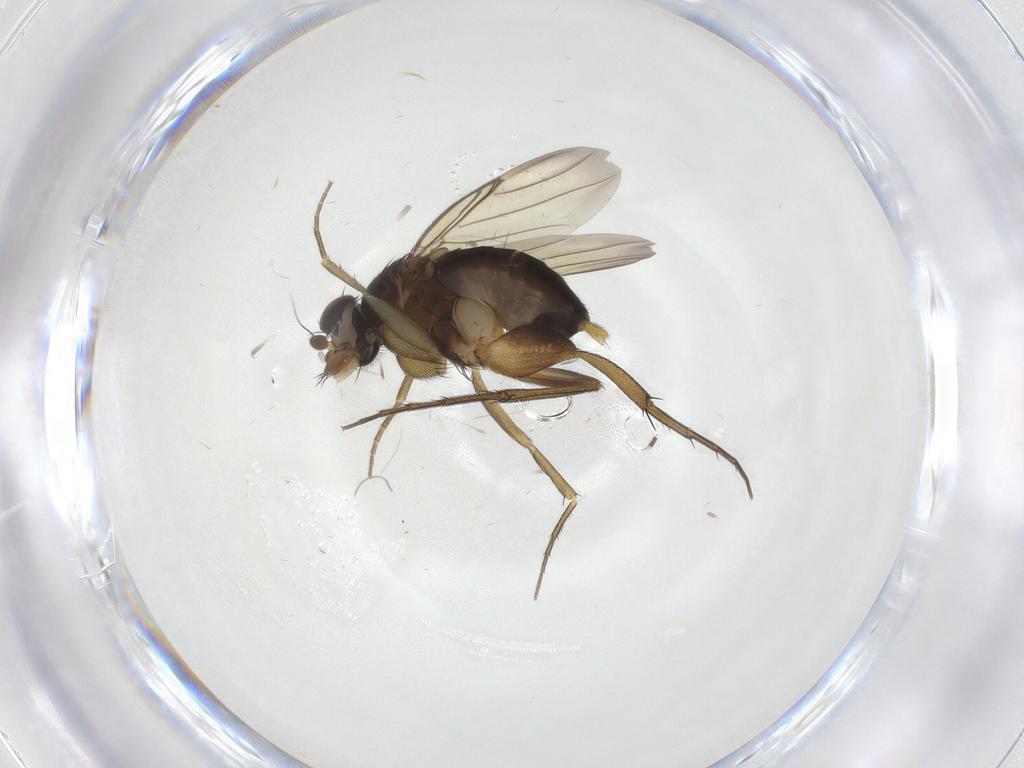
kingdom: Animalia
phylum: Arthropoda
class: Insecta
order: Diptera
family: Phoridae
